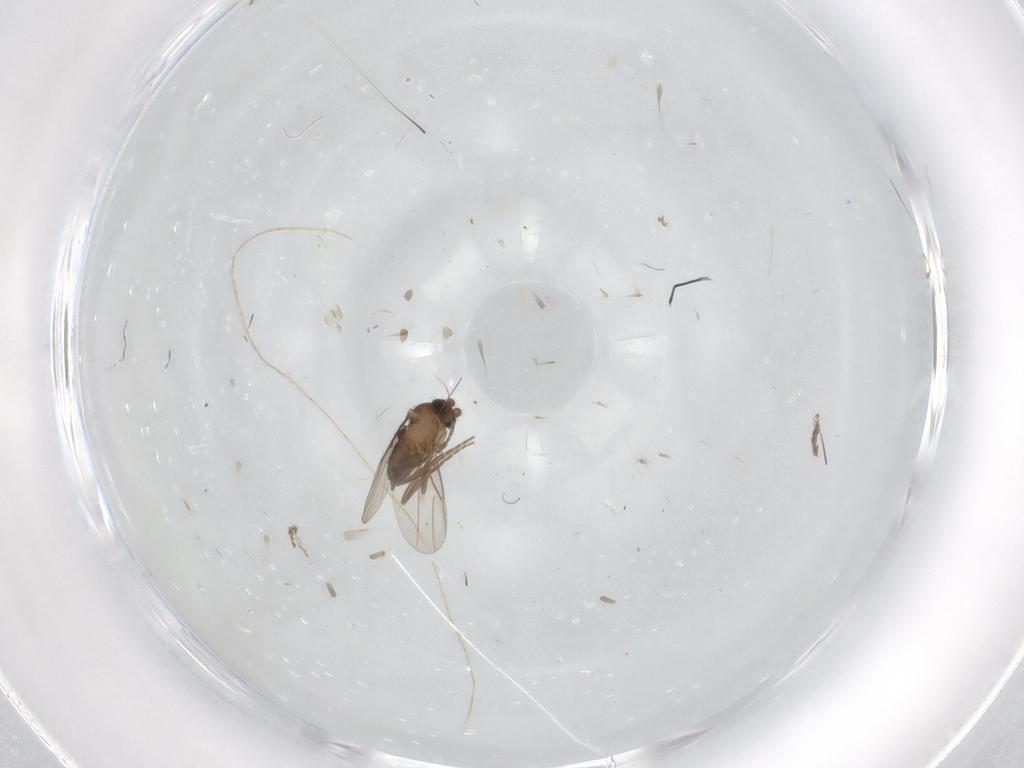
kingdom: Animalia
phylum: Arthropoda
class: Insecta
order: Diptera
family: Phoridae
